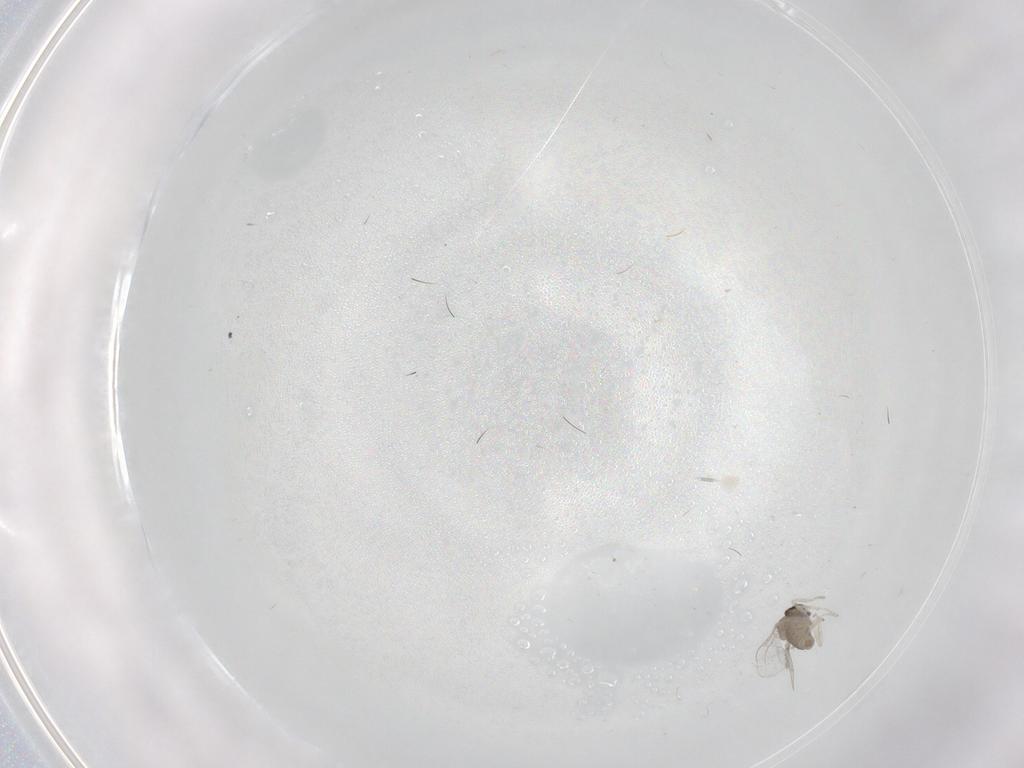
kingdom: Animalia
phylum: Arthropoda
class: Insecta
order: Diptera
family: Cecidomyiidae
